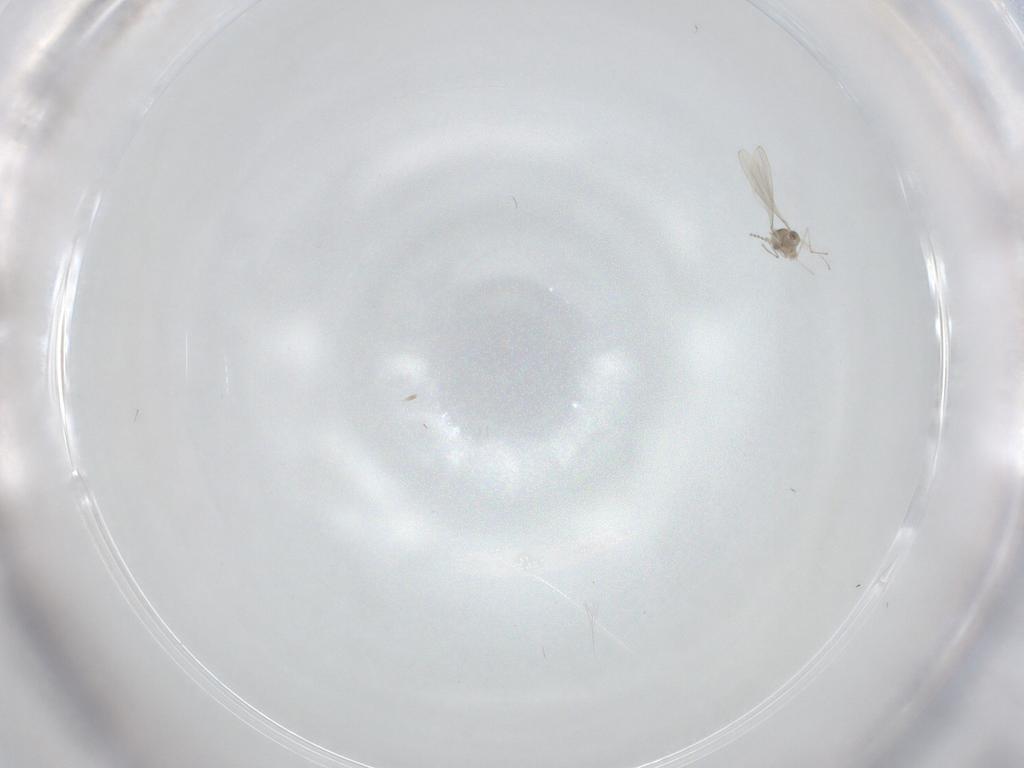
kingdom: Animalia
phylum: Arthropoda
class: Insecta
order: Diptera
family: Cecidomyiidae
